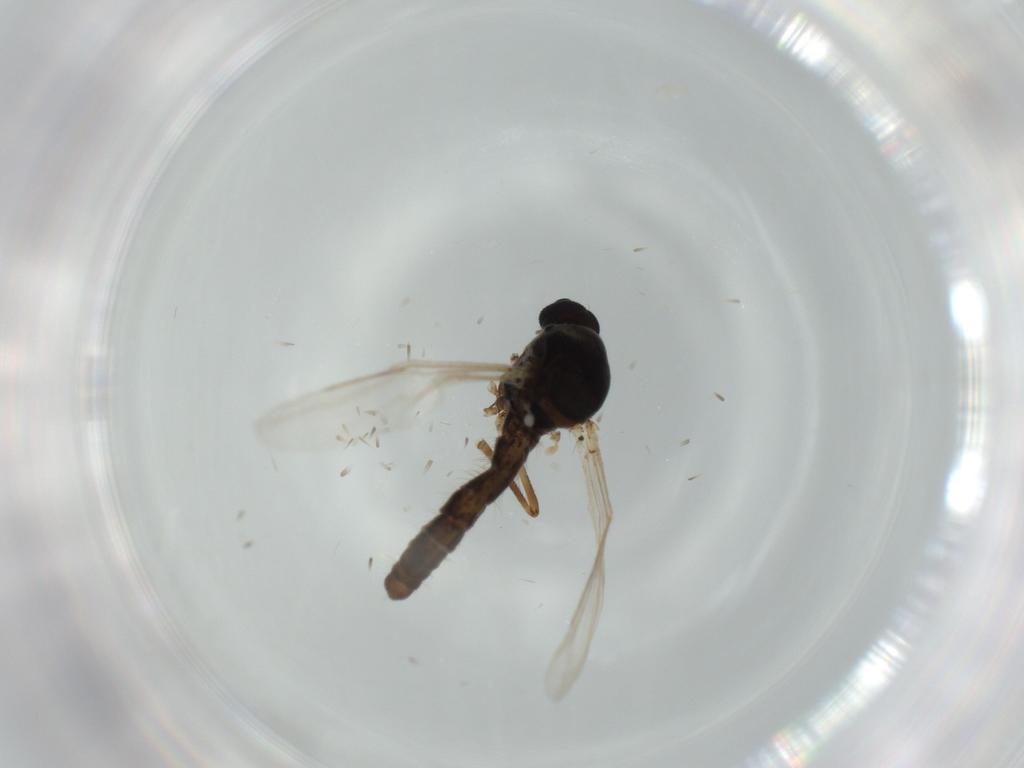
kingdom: Animalia
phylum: Arthropoda
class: Insecta
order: Diptera
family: Ceratopogonidae
